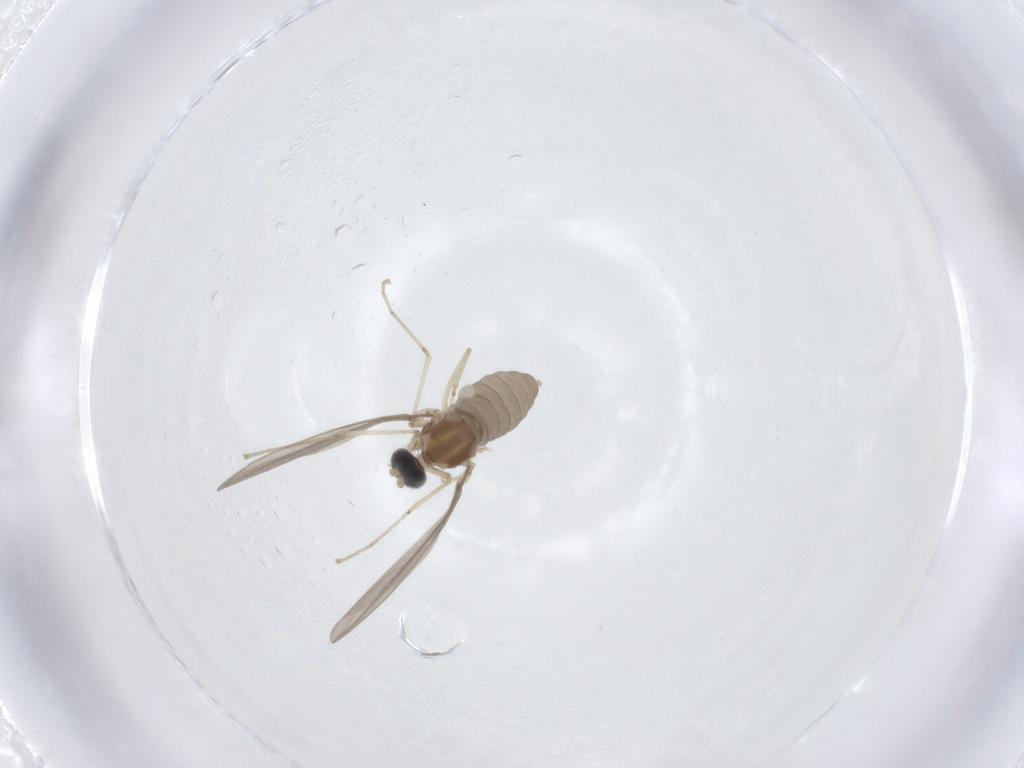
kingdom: Animalia
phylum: Arthropoda
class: Insecta
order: Diptera
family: Cecidomyiidae
